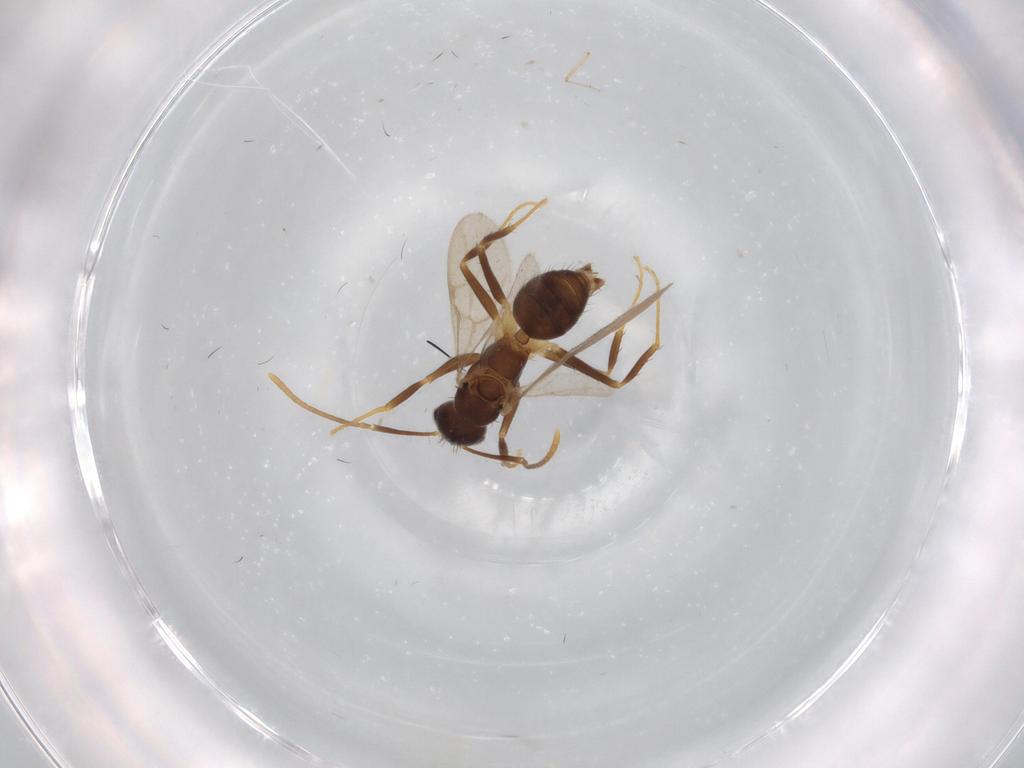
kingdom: Animalia
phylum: Arthropoda
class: Insecta
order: Hymenoptera
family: Formicidae
